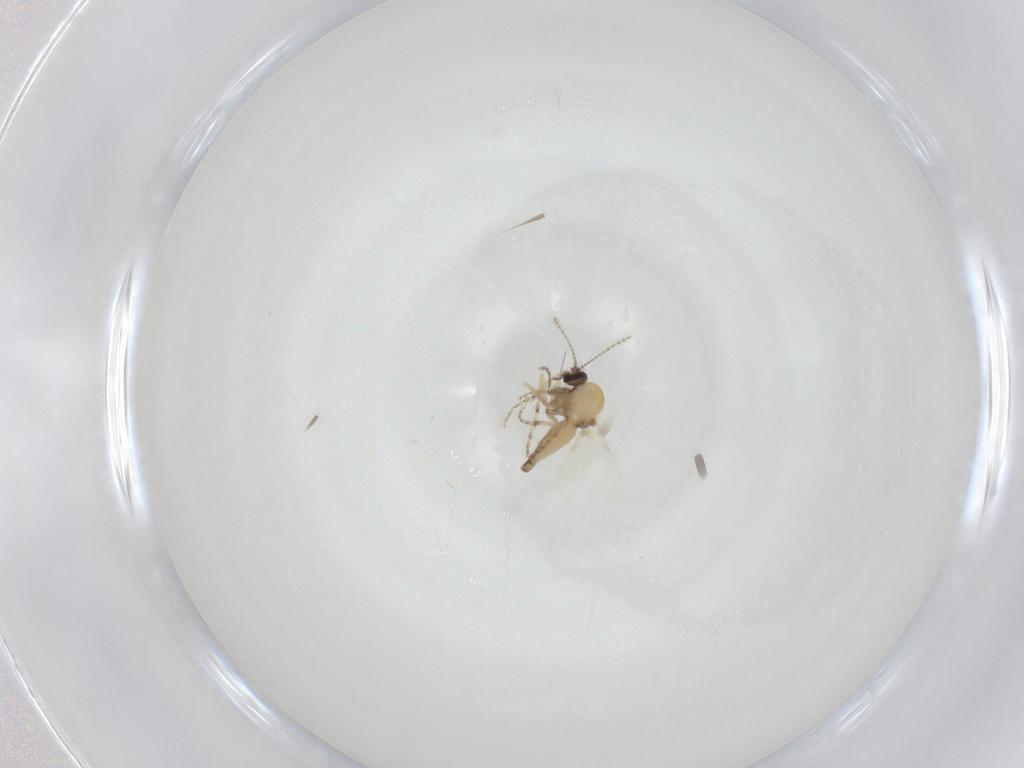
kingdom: Animalia
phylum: Arthropoda
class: Insecta
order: Diptera
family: Ceratopogonidae
